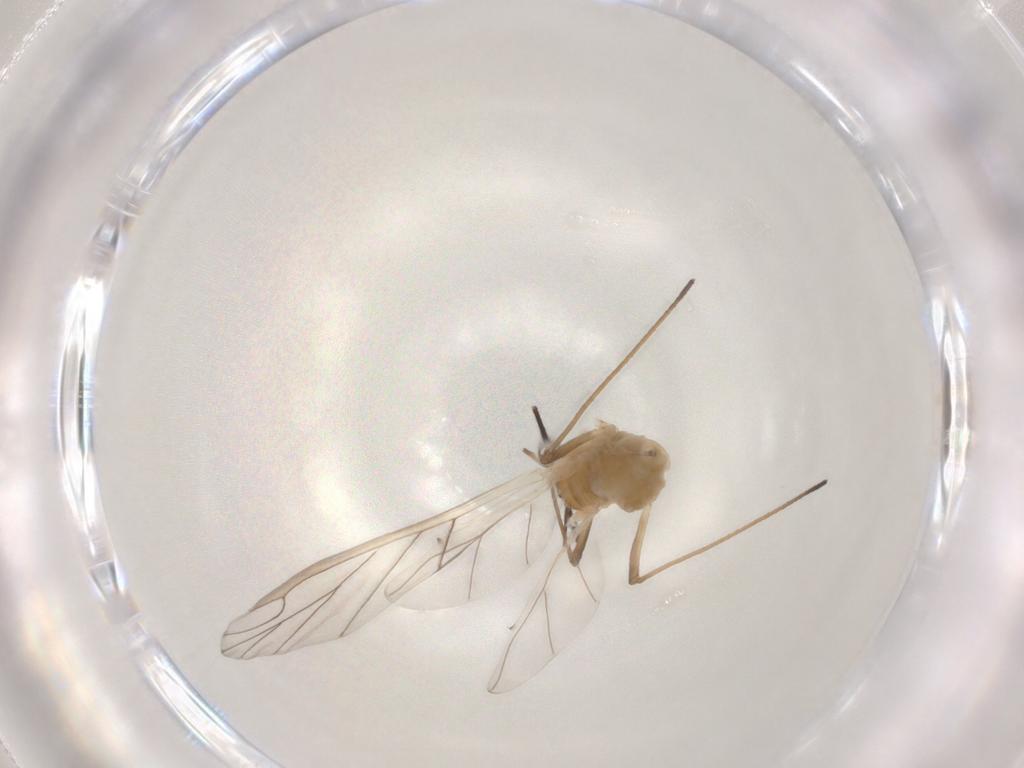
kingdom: Animalia
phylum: Arthropoda
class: Insecta
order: Hemiptera
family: Aphididae
